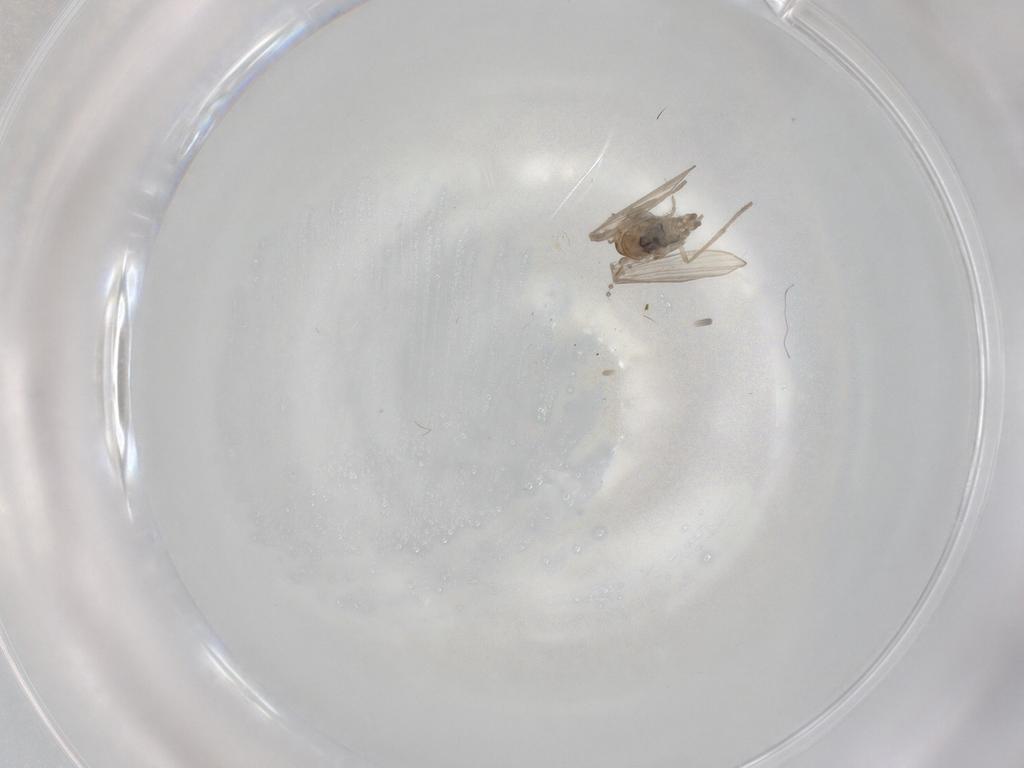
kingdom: Animalia
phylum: Arthropoda
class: Insecta
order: Diptera
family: Ceratopogonidae
